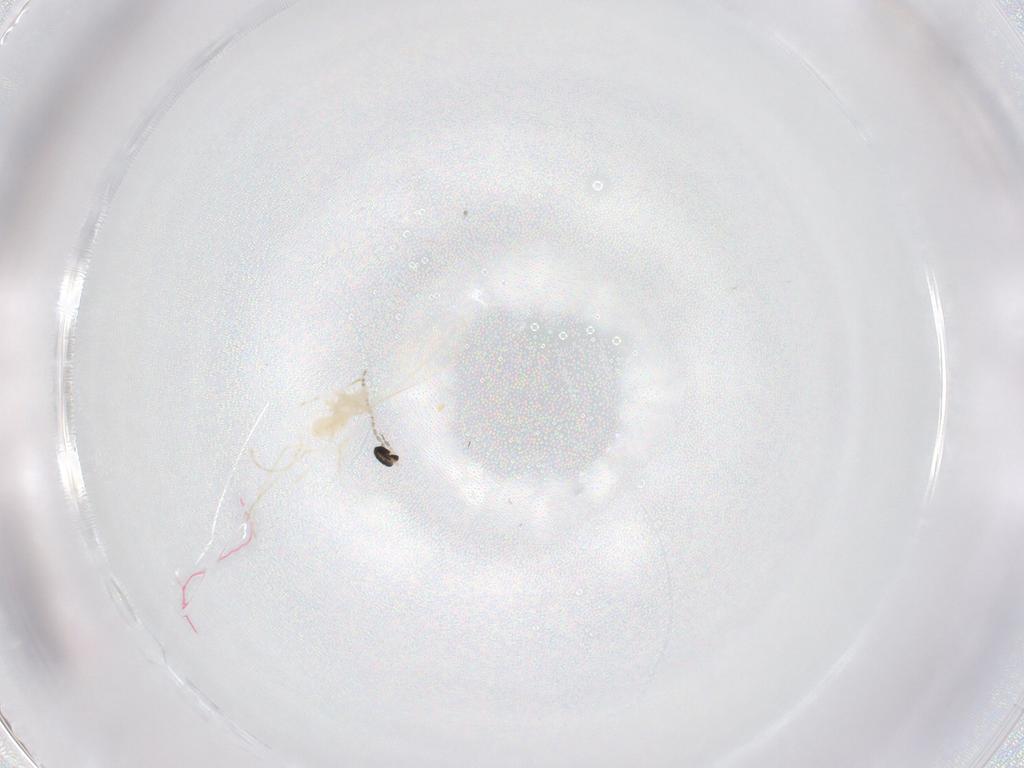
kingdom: Animalia
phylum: Arthropoda
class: Insecta
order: Diptera
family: Cecidomyiidae
